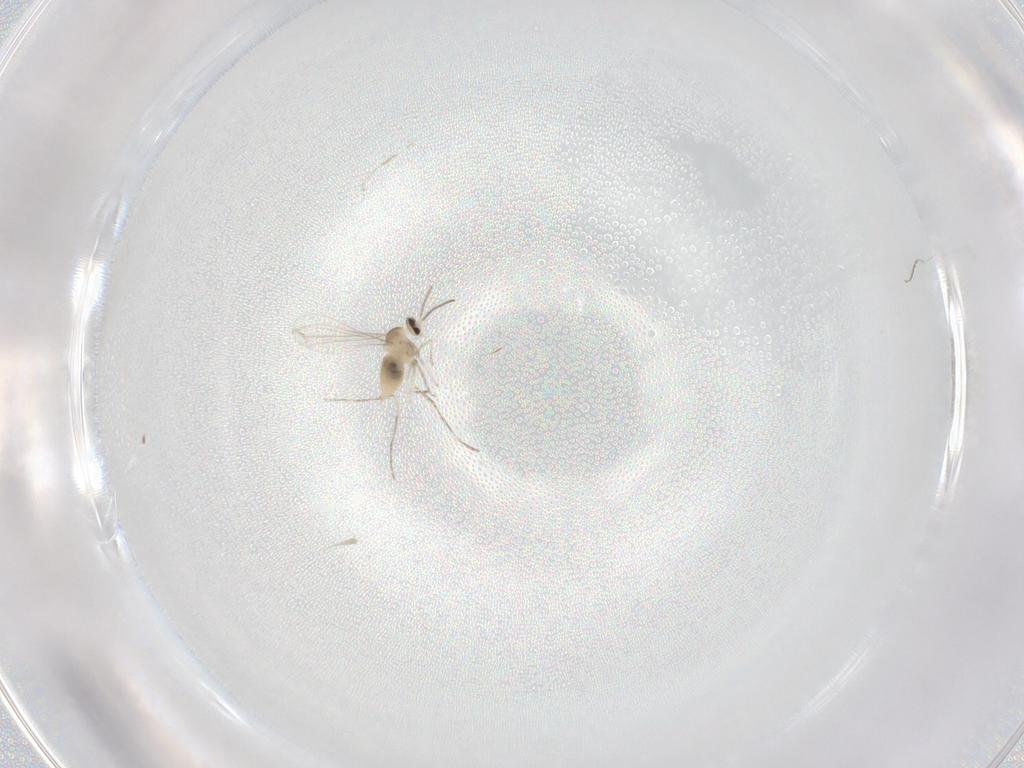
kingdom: Animalia
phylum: Arthropoda
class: Insecta
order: Diptera
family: Cecidomyiidae
